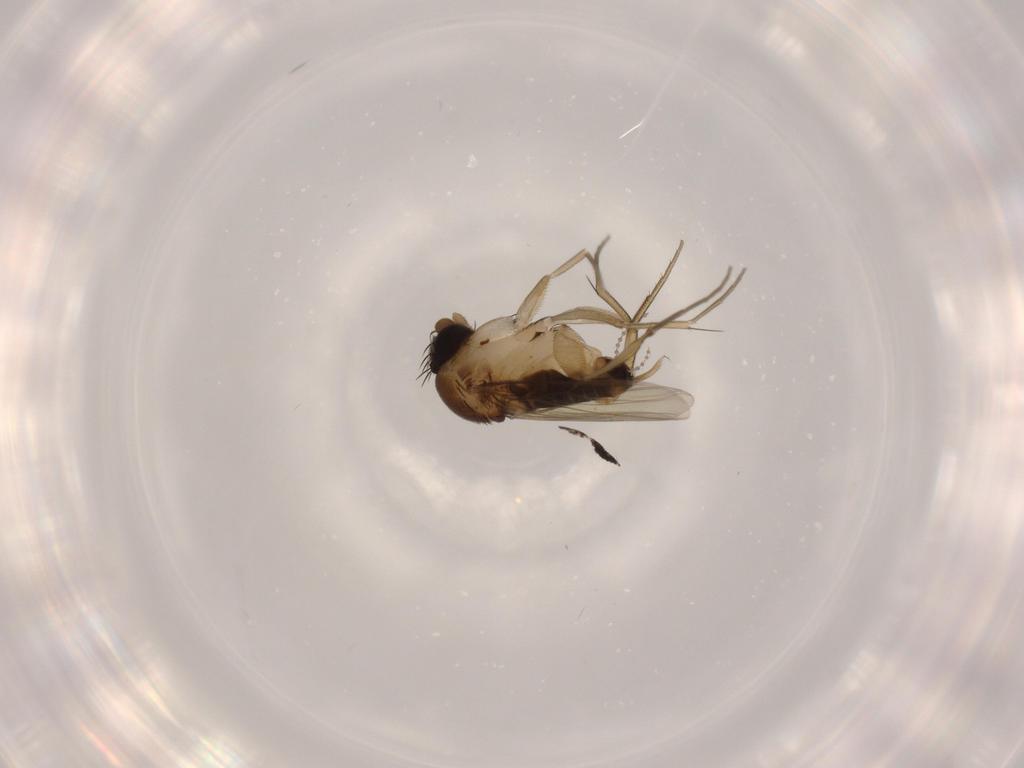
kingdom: Animalia
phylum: Arthropoda
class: Insecta
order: Diptera
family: Phoridae
